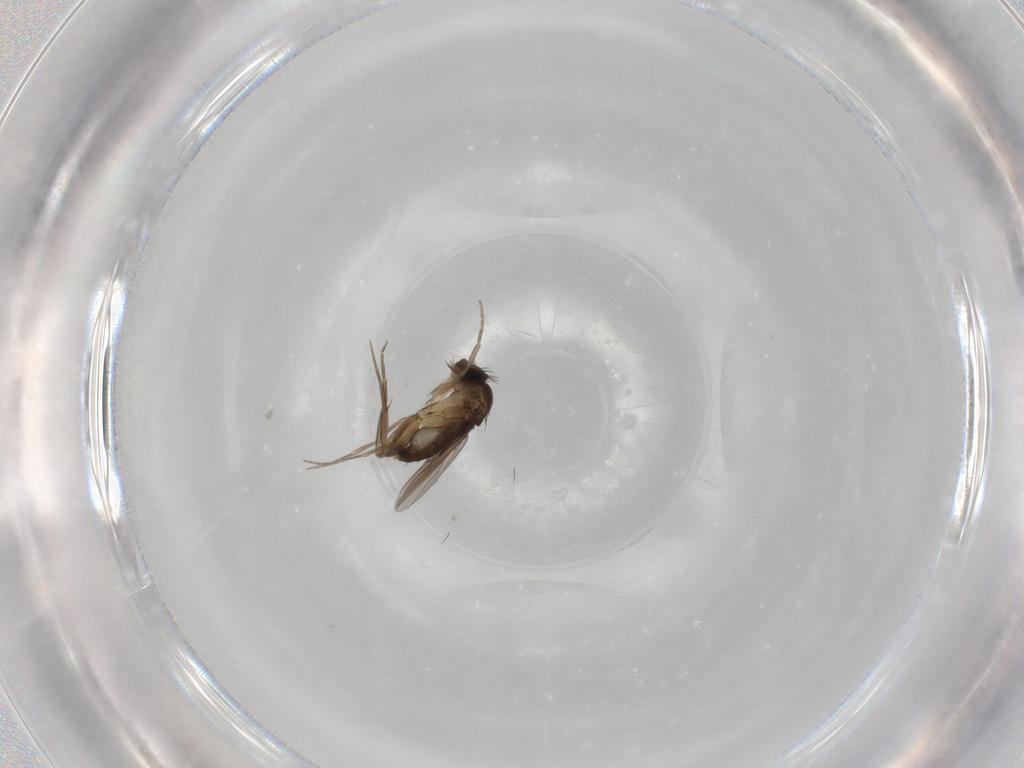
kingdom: Animalia
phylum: Arthropoda
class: Insecta
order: Diptera
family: Phoridae
